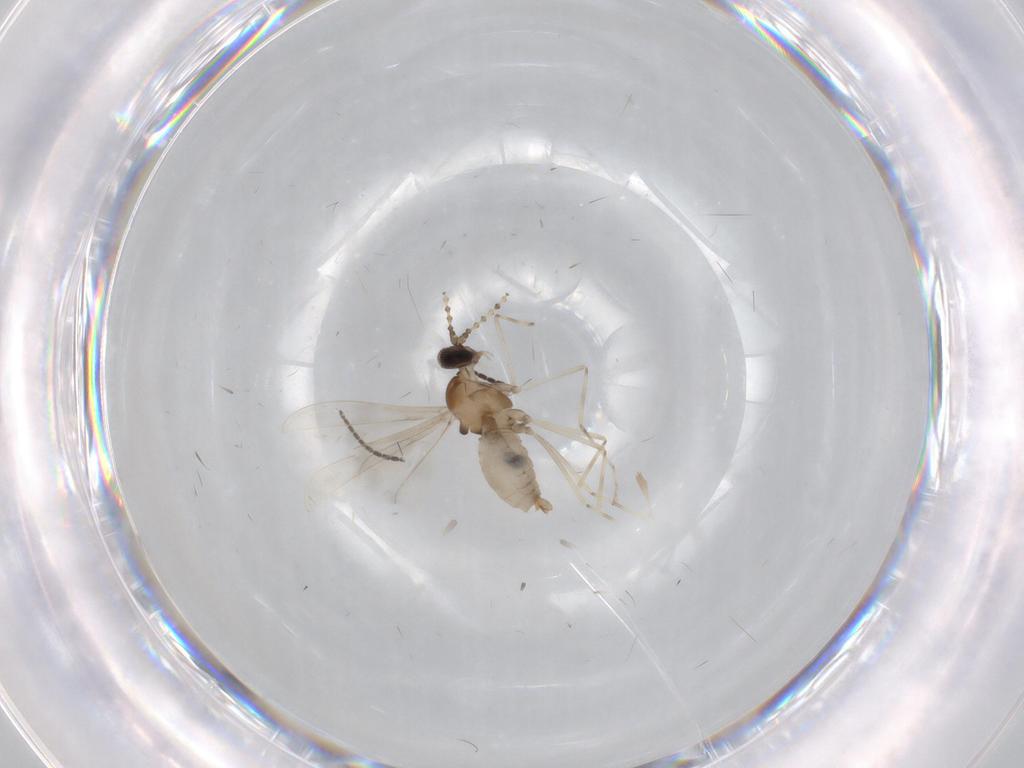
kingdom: Animalia
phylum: Arthropoda
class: Insecta
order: Diptera
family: Cecidomyiidae
